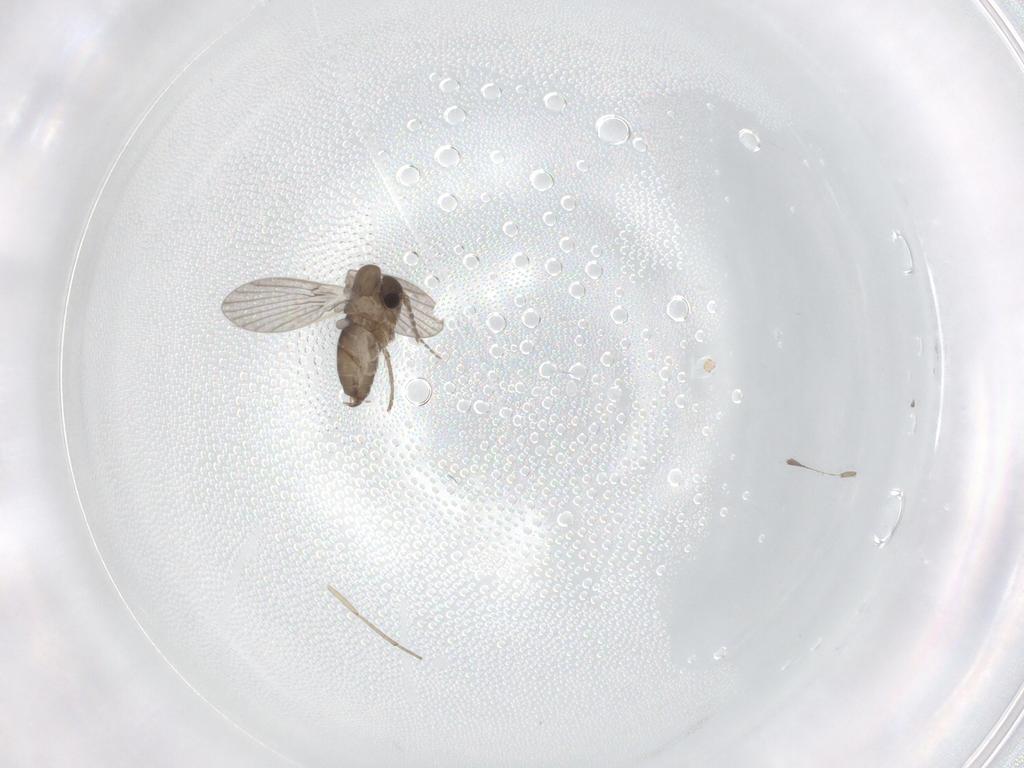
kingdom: Animalia
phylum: Arthropoda
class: Insecta
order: Diptera
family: Cecidomyiidae
